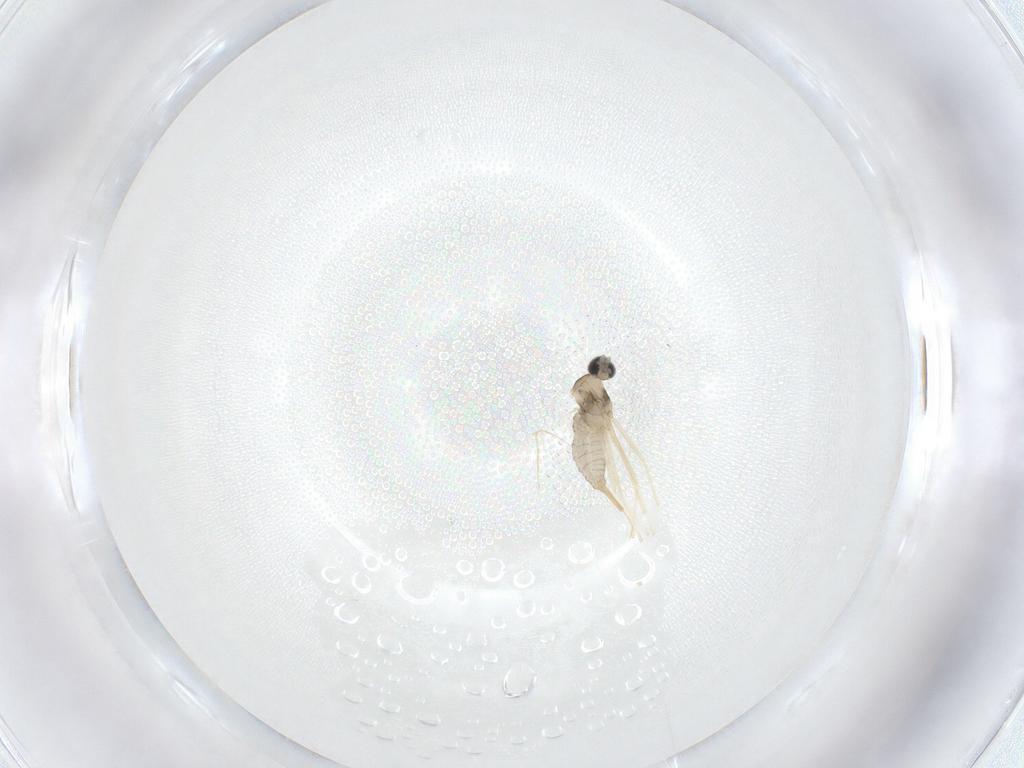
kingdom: Animalia
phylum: Arthropoda
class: Insecta
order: Diptera
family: Cecidomyiidae
